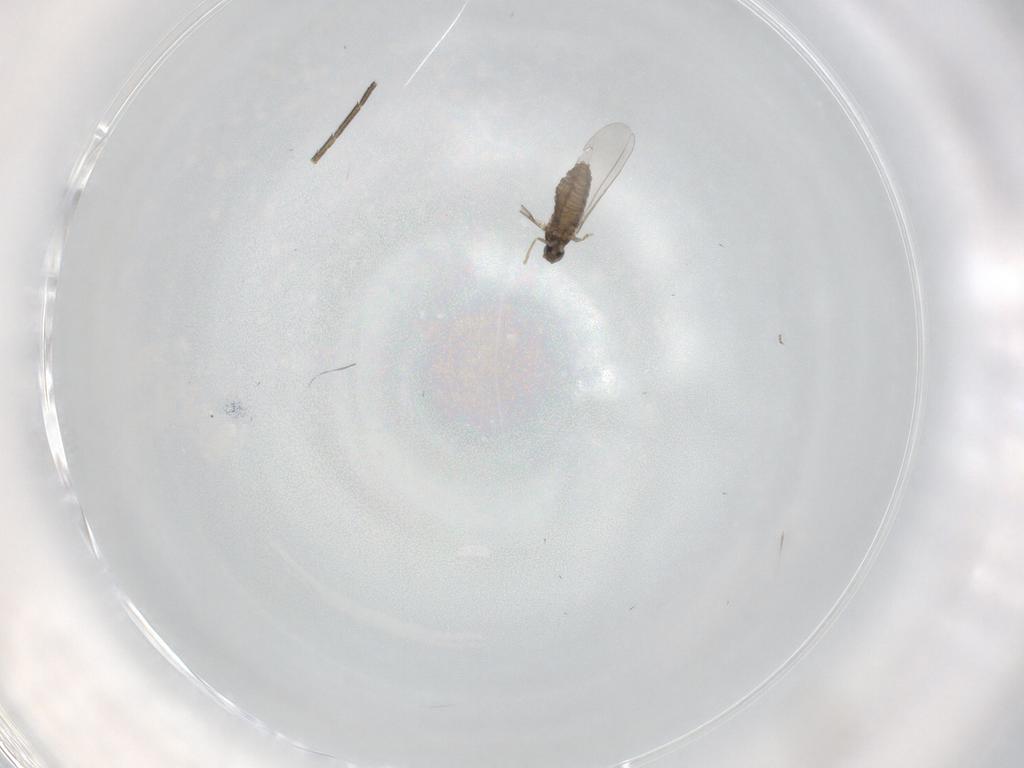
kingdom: Animalia
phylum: Arthropoda
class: Insecta
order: Diptera
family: Cecidomyiidae
